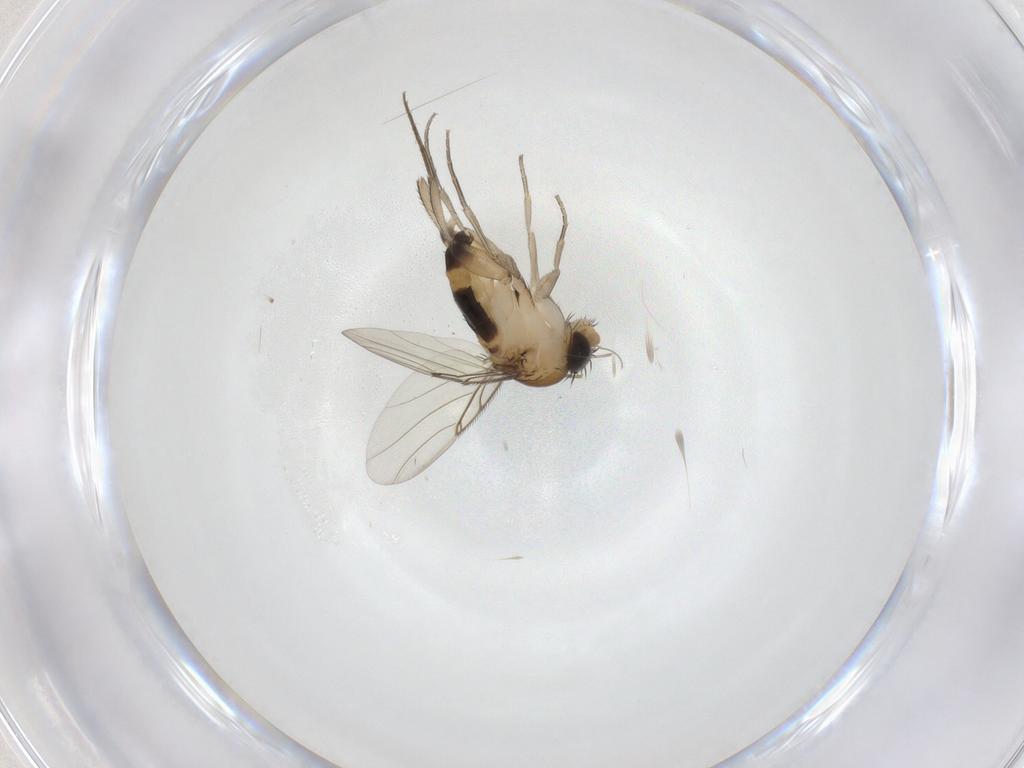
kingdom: Animalia
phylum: Arthropoda
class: Insecta
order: Diptera
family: Phoridae
